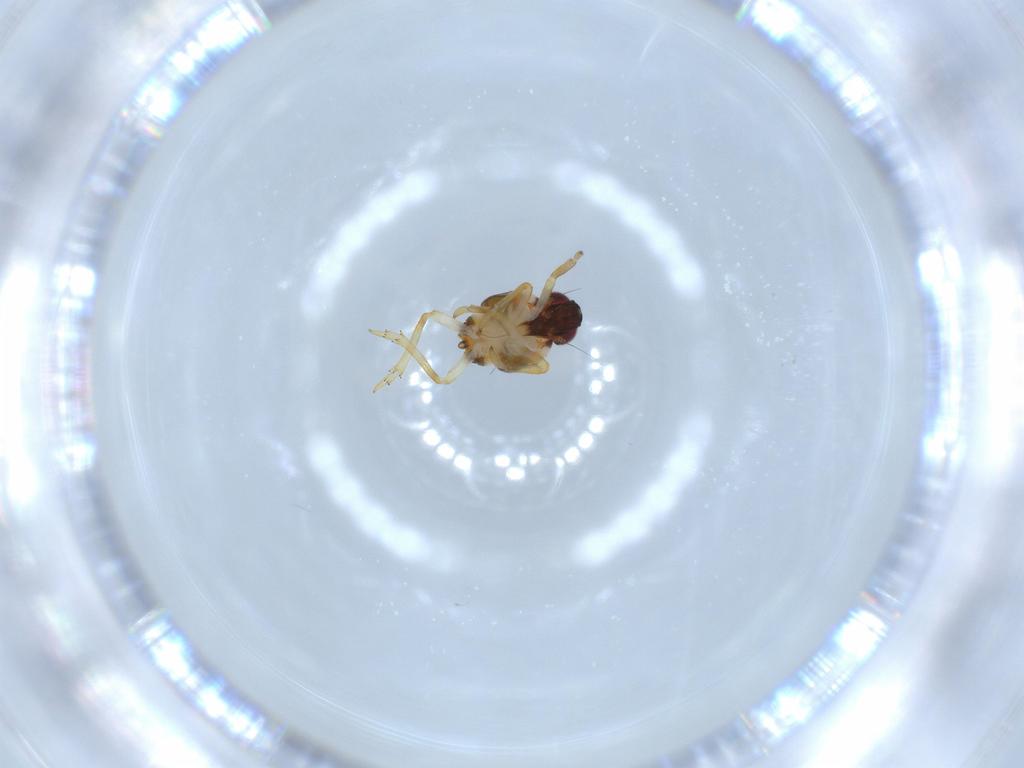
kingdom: Animalia
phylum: Arthropoda
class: Insecta
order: Hemiptera
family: Issidae
